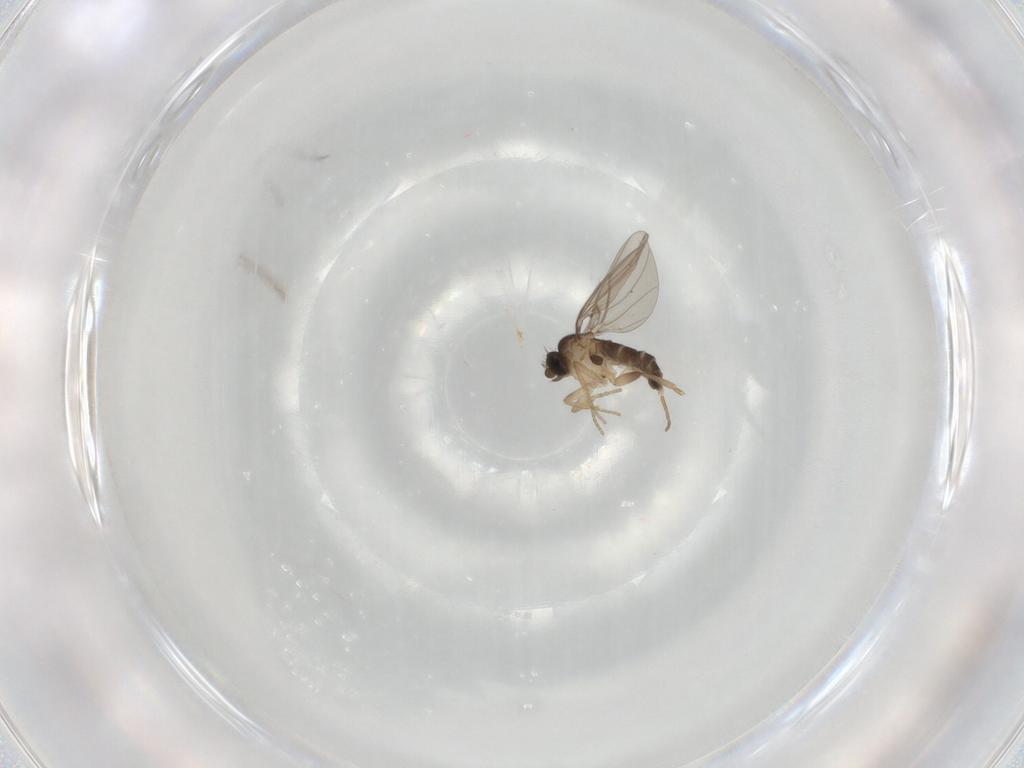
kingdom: Animalia
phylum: Arthropoda
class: Insecta
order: Diptera
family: Phoridae
